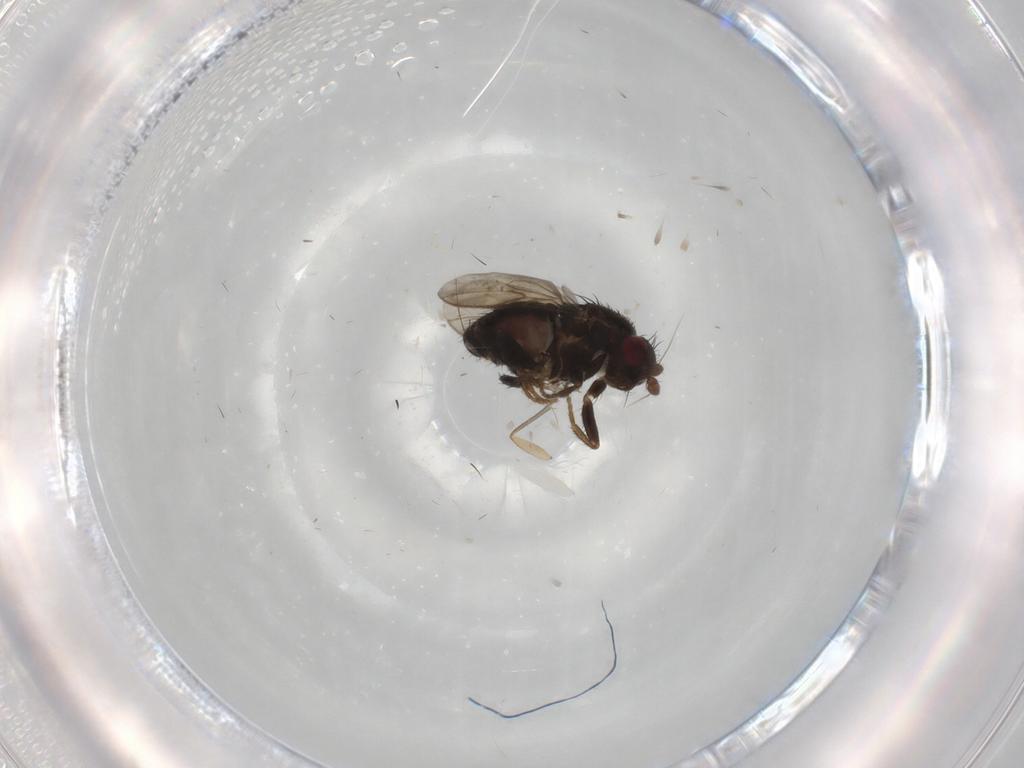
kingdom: Animalia
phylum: Arthropoda
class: Insecta
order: Diptera
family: Sphaeroceridae
